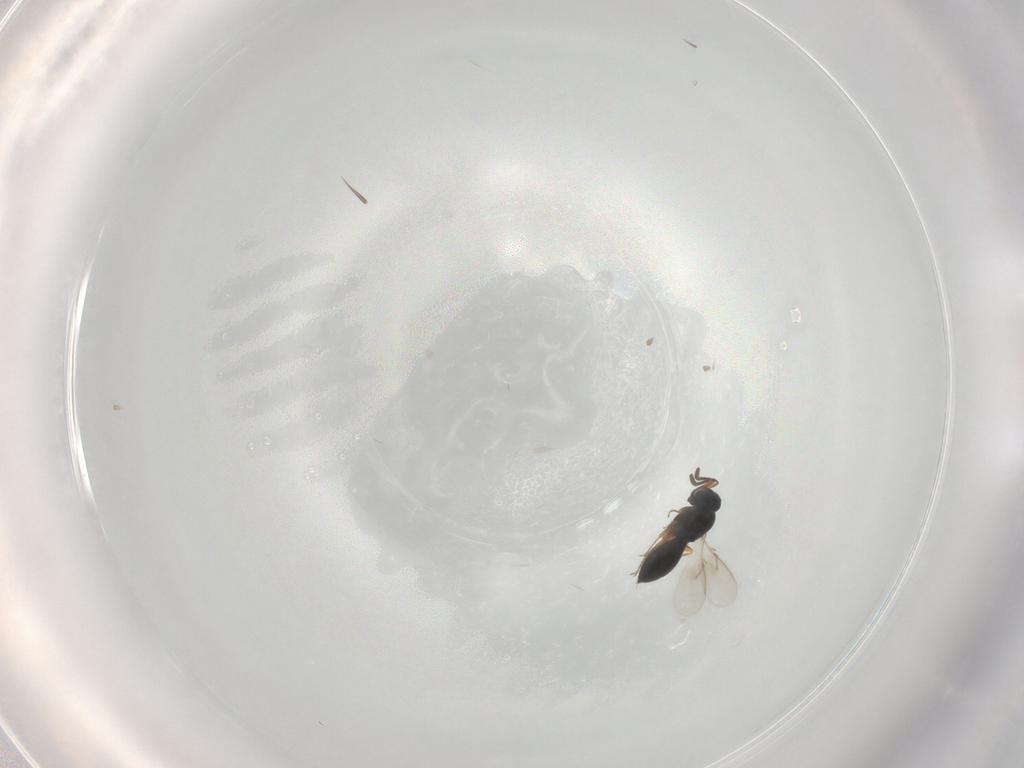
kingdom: Animalia
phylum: Arthropoda
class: Insecta
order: Hymenoptera
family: Scelionidae
